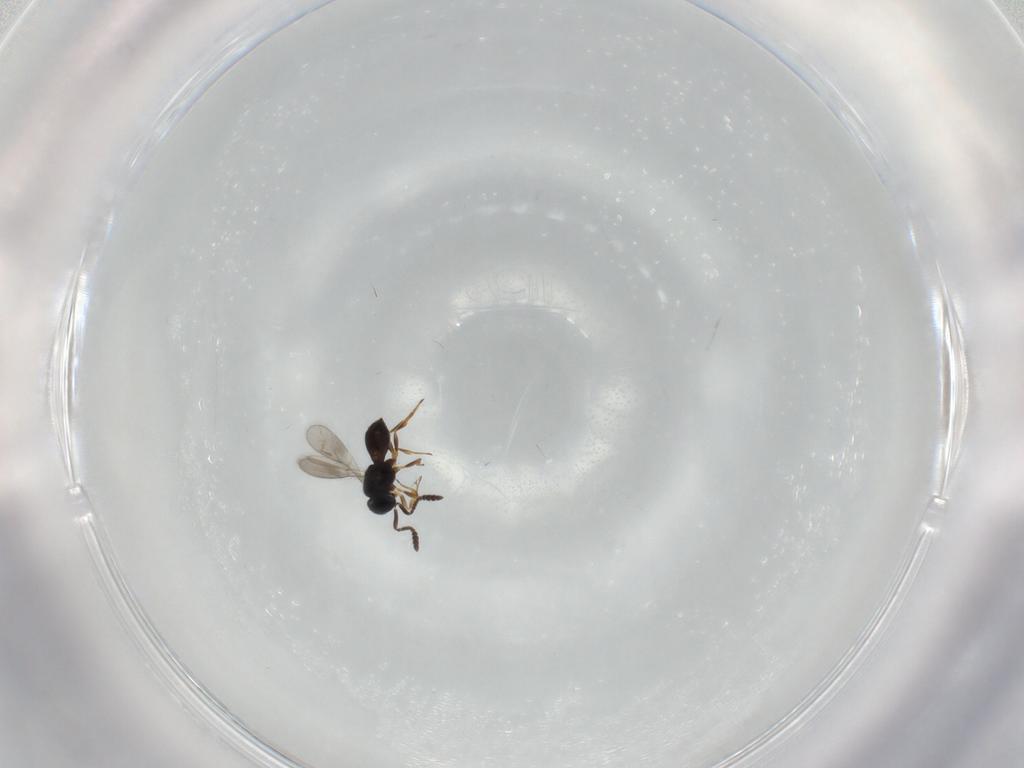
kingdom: Animalia
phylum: Arthropoda
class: Insecta
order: Hymenoptera
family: Scelionidae
